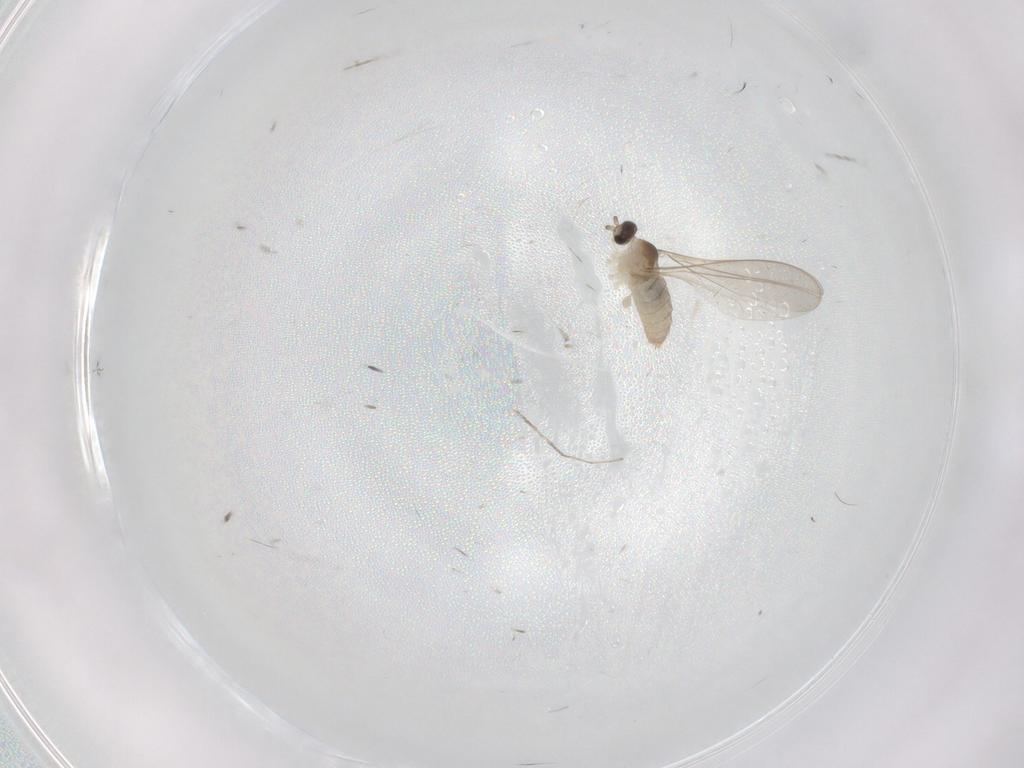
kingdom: Animalia
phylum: Arthropoda
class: Insecta
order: Diptera
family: Cecidomyiidae
